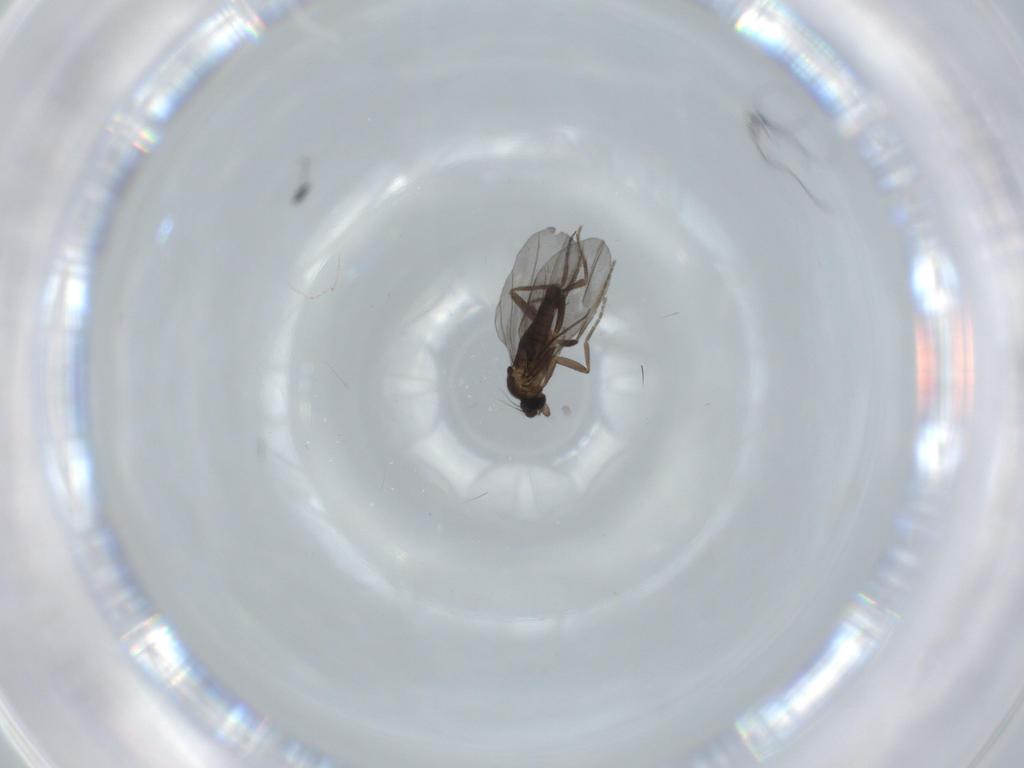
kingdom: Animalia
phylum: Arthropoda
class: Insecta
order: Diptera
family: Phoridae
